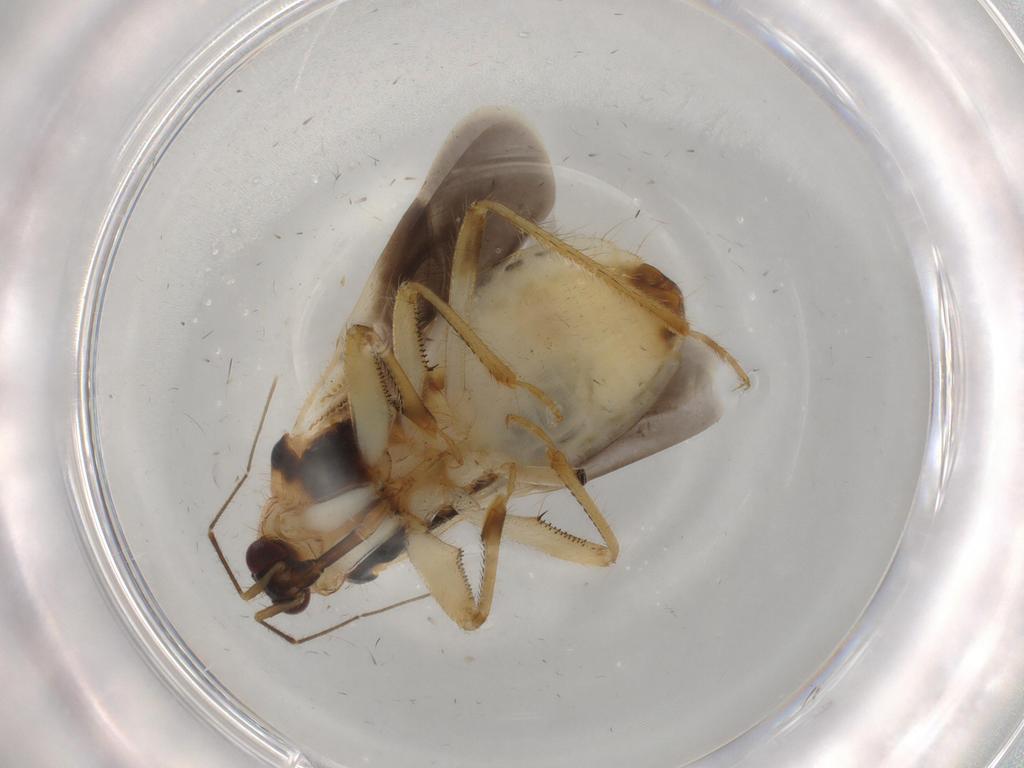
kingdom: Animalia
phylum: Arthropoda
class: Insecta
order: Hemiptera
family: Nabidae
